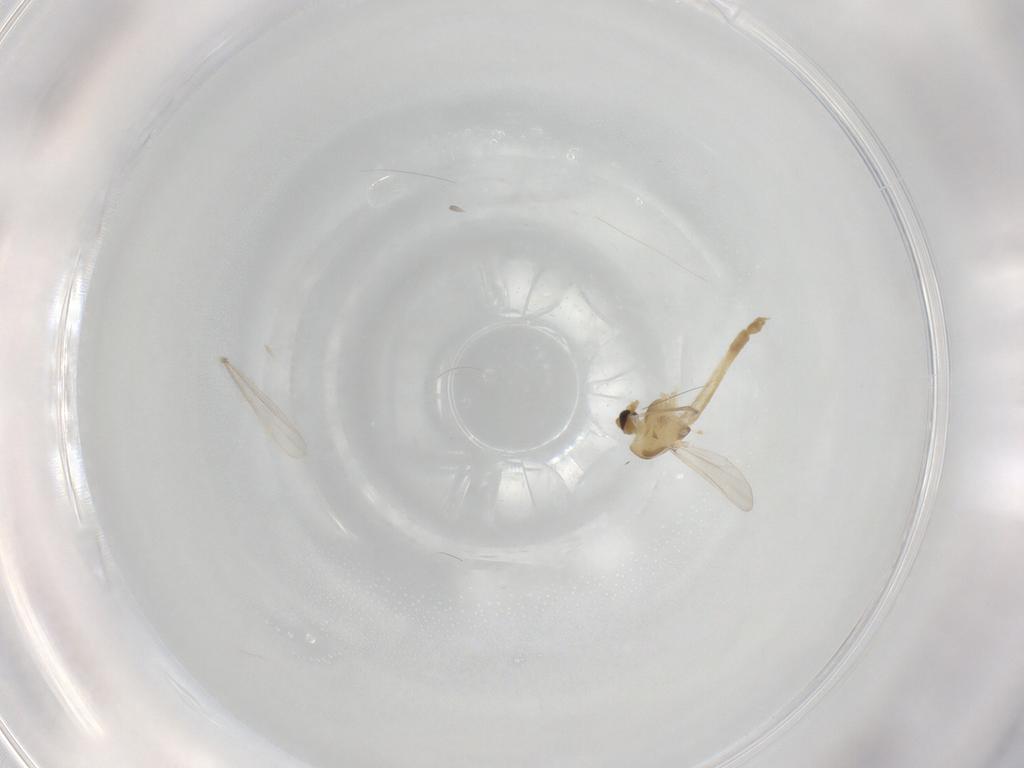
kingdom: Animalia
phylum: Arthropoda
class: Insecta
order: Diptera
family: Chironomidae
